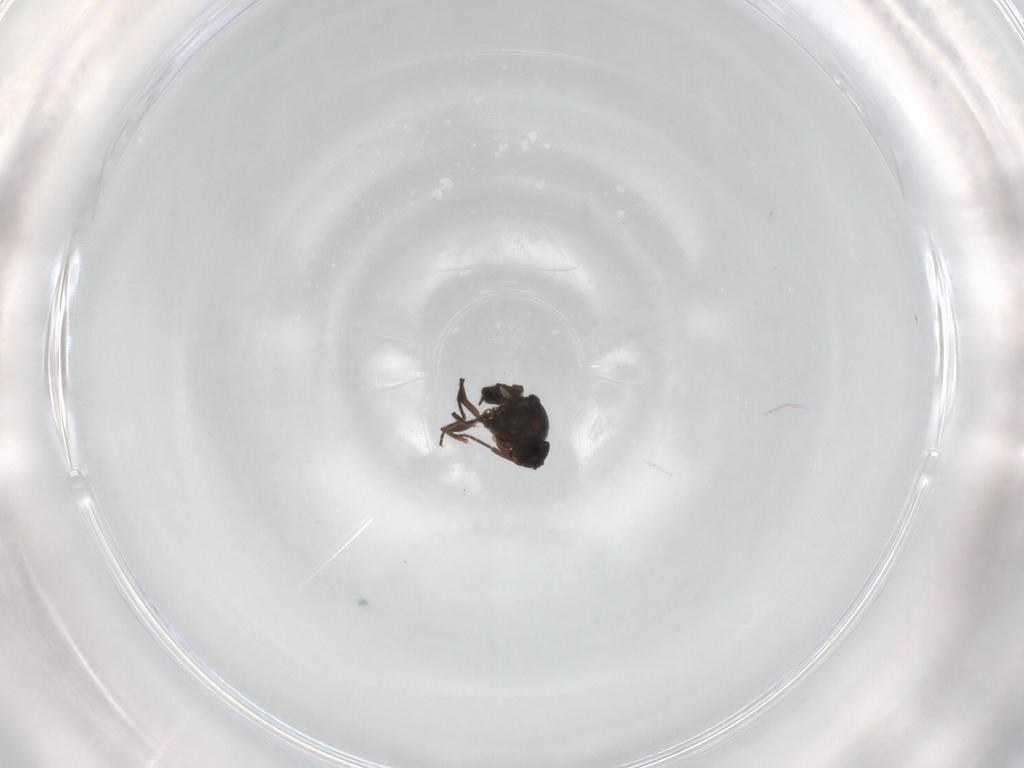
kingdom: Animalia
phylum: Arthropoda
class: Insecta
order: Diptera
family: Chloropidae
